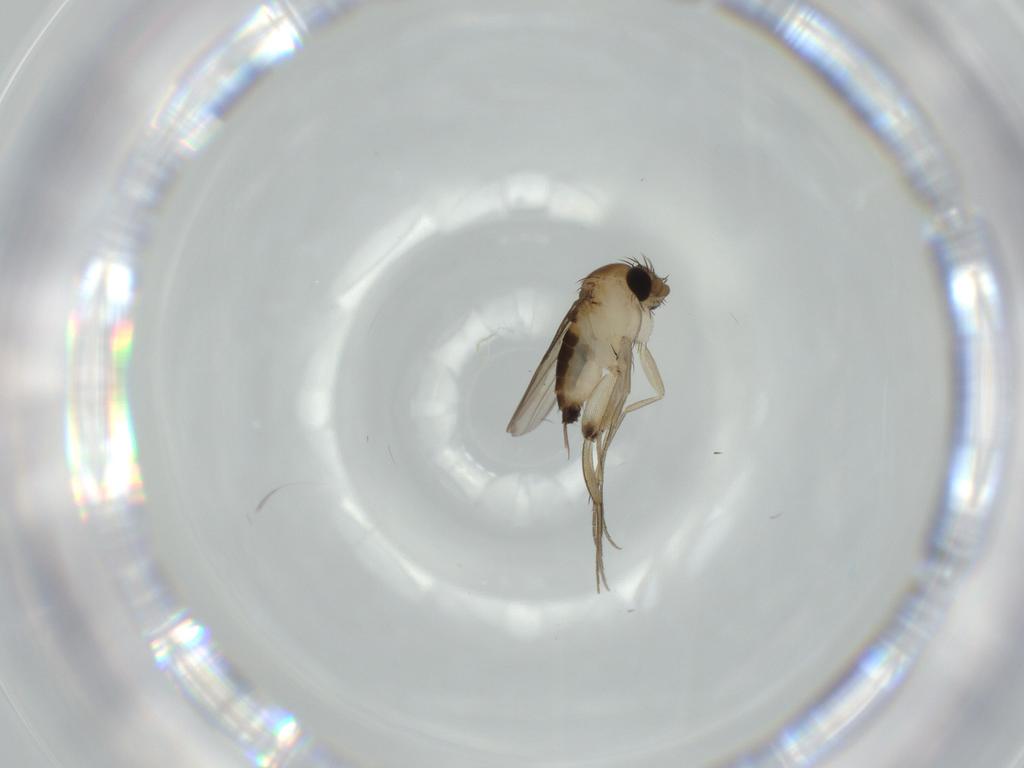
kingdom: Animalia
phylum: Arthropoda
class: Insecta
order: Diptera
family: Phoridae
